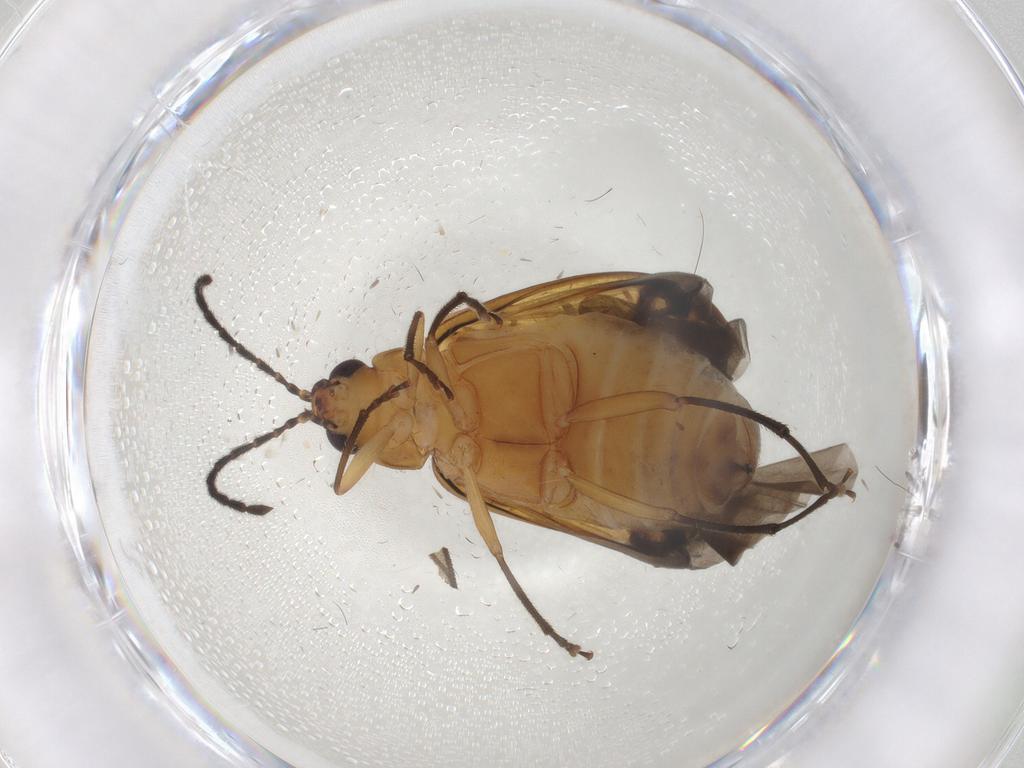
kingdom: Animalia
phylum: Arthropoda
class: Insecta
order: Coleoptera
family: Chrysomelidae
